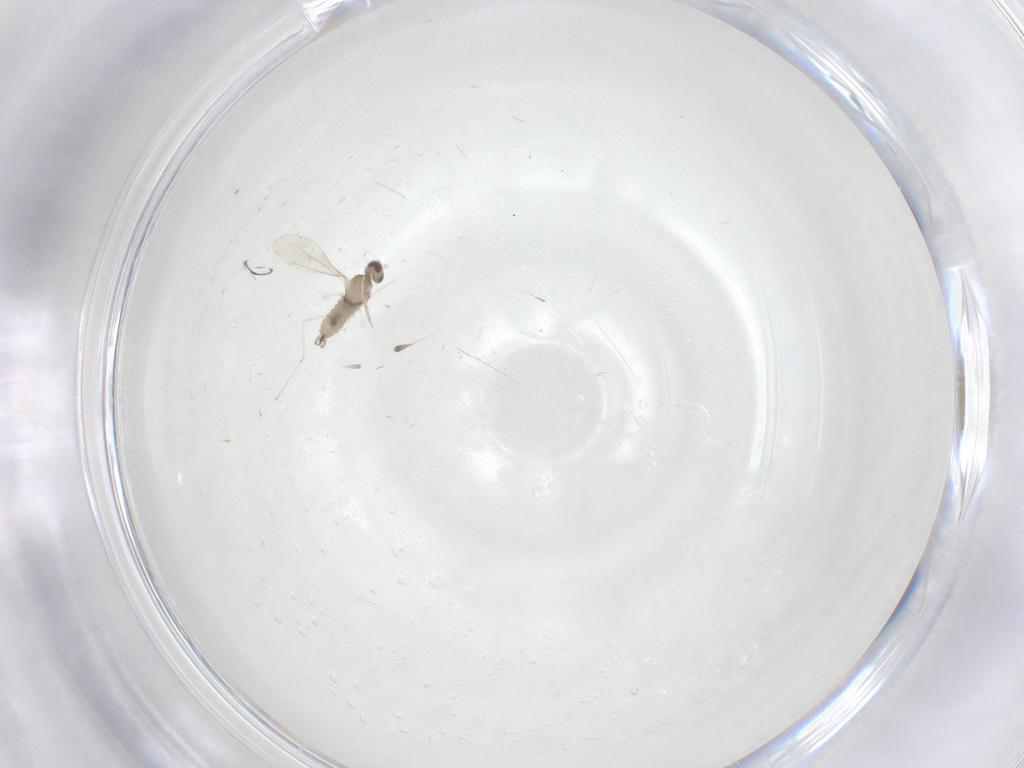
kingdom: Animalia
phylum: Arthropoda
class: Insecta
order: Diptera
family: Cecidomyiidae
